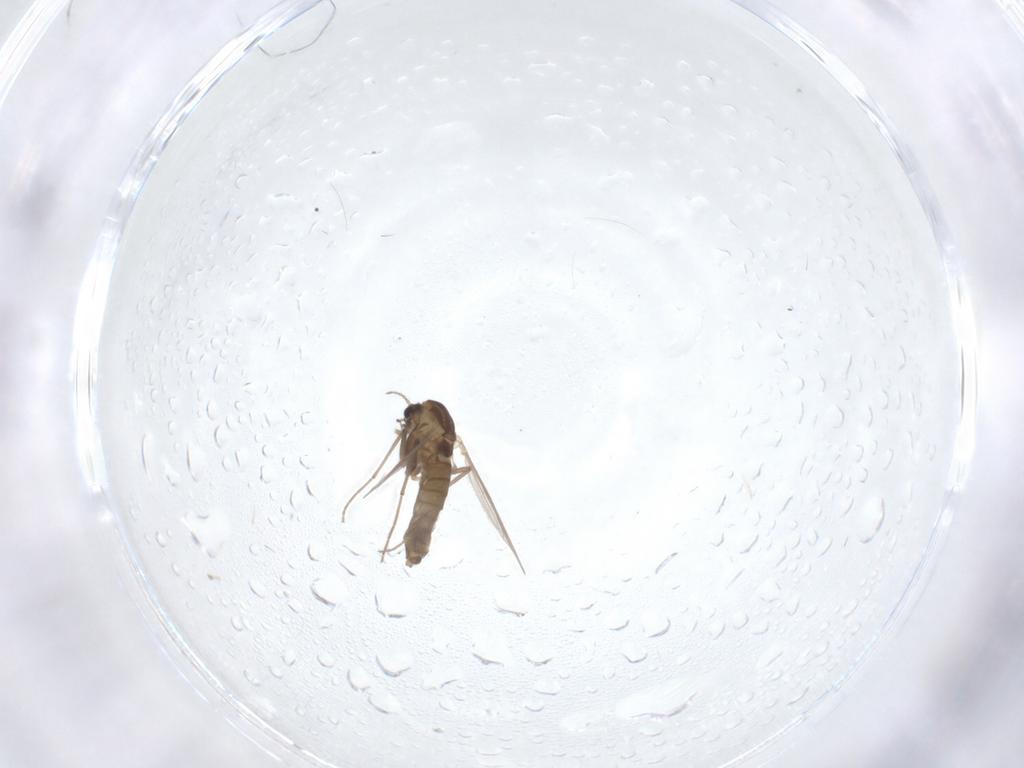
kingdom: Animalia
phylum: Arthropoda
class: Insecta
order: Diptera
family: Chironomidae
